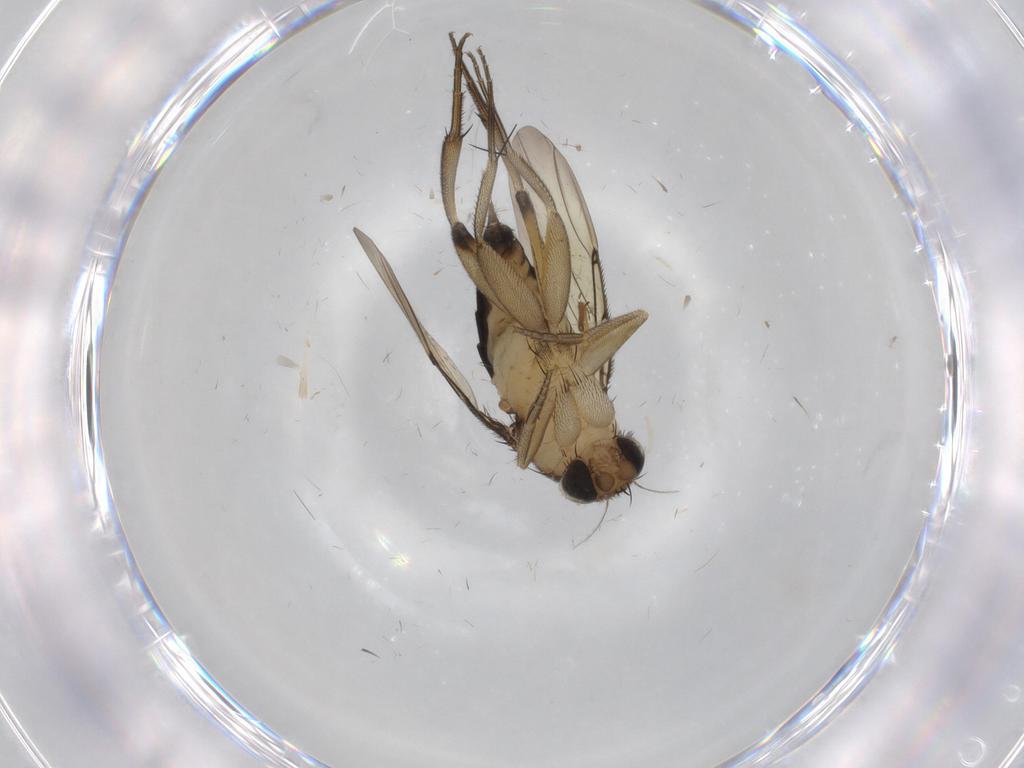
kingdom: Animalia
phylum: Arthropoda
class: Insecta
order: Diptera
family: Phoridae
